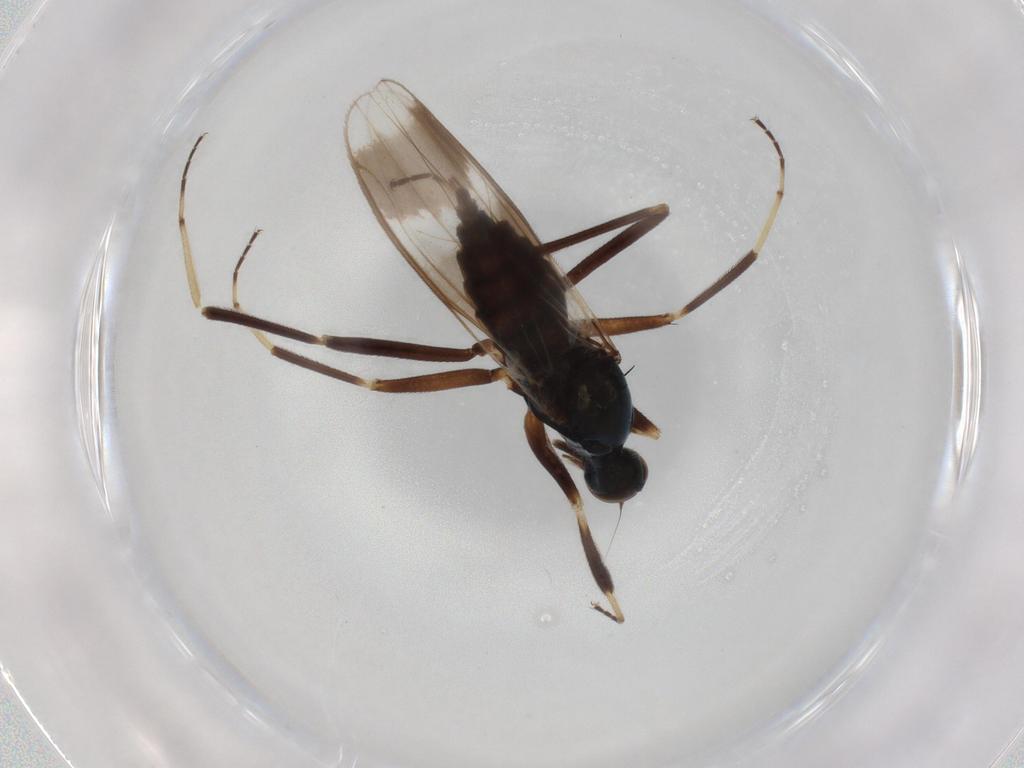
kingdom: Animalia
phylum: Arthropoda
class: Insecta
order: Diptera
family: Hybotidae
